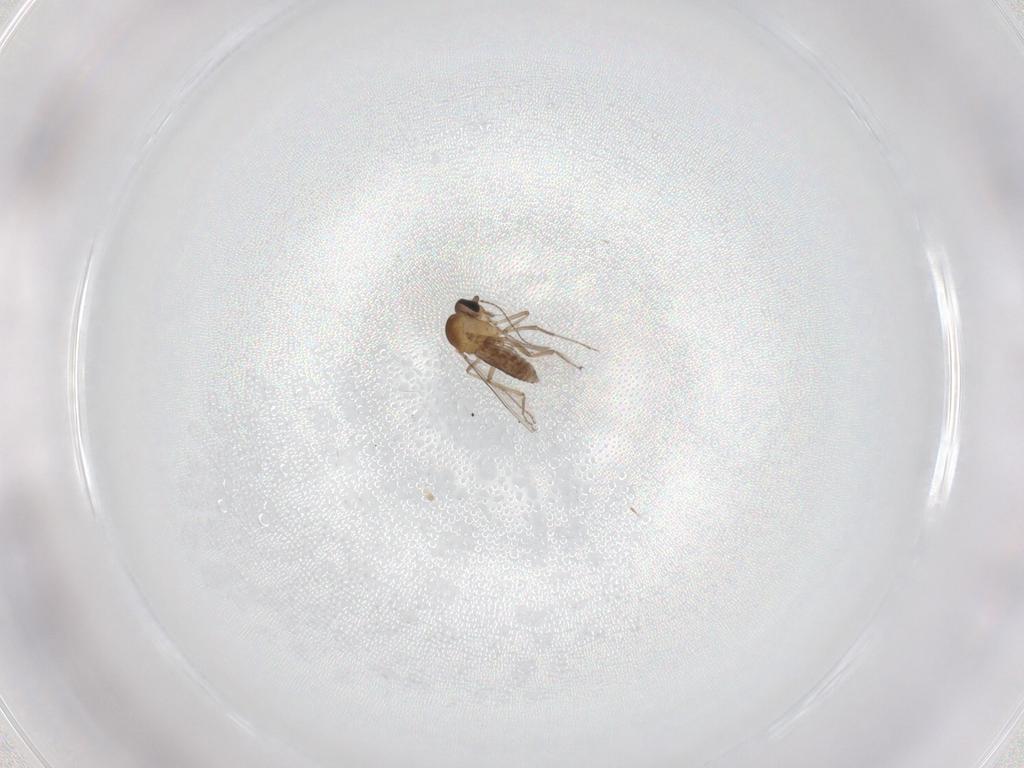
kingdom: Animalia
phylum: Arthropoda
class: Insecta
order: Diptera
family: Ceratopogonidae
